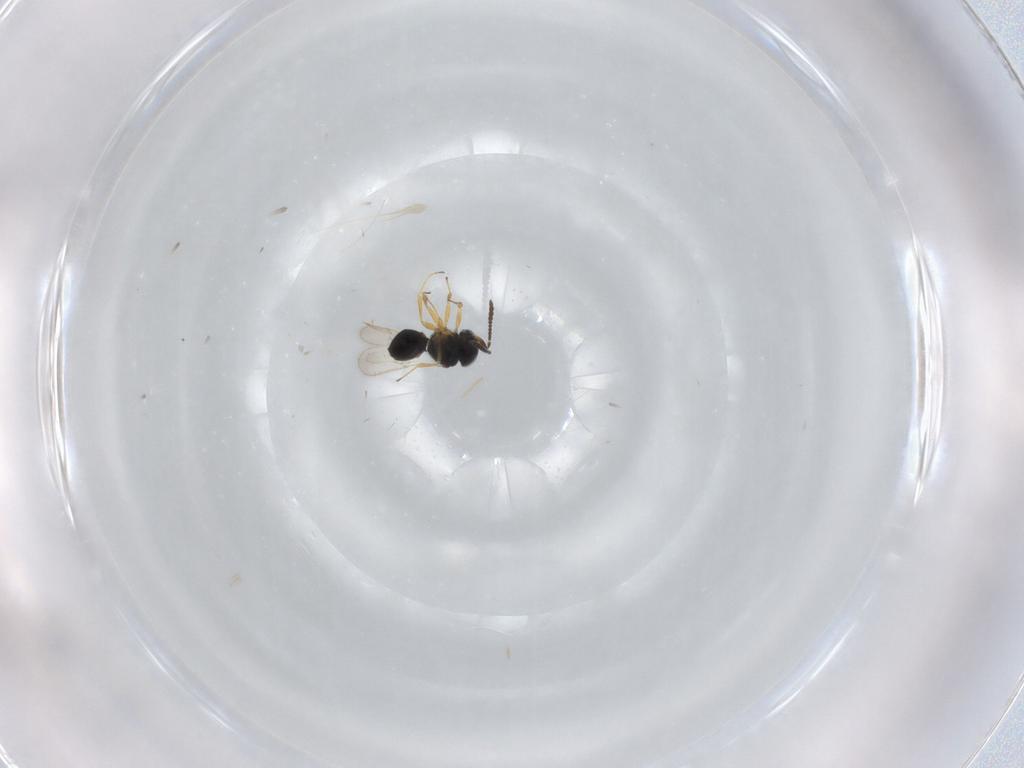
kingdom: Animalia
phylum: Arthropoda
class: Insecta
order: Hymenoptera
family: Scelionidae
